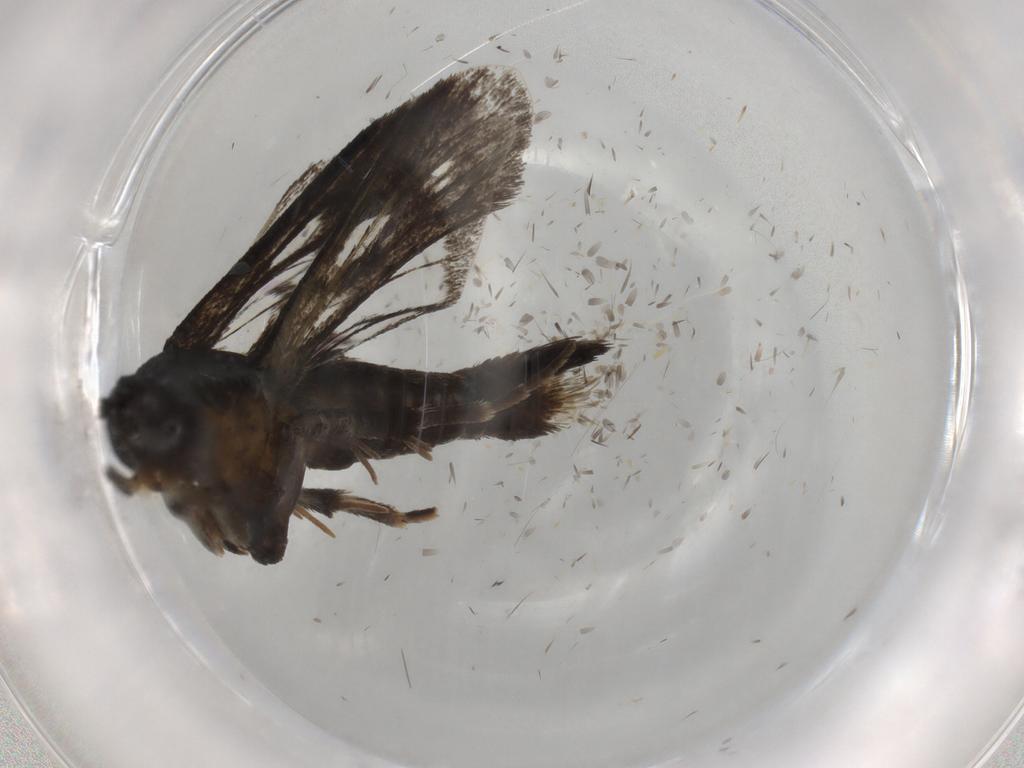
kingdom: Animalia
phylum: Arthropoda
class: Insecta
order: Lepidoptera
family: Sesiidae
